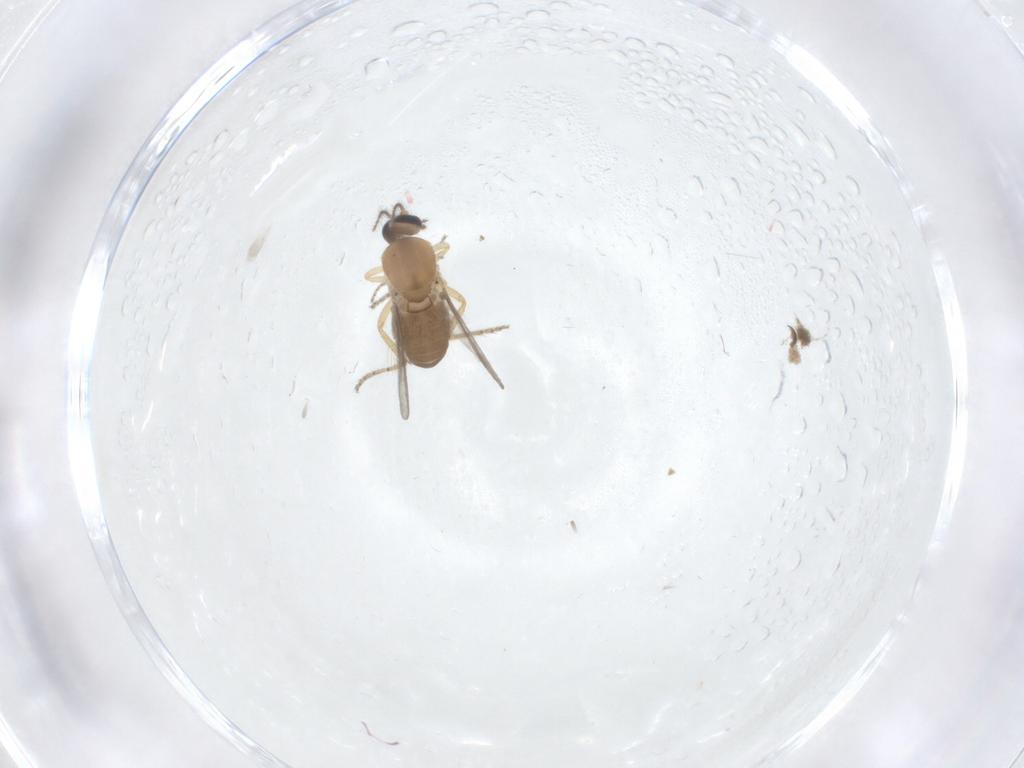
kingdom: Animalia
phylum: Arthropoda
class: Insecta
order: Diptera
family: Ceratopogonidae
